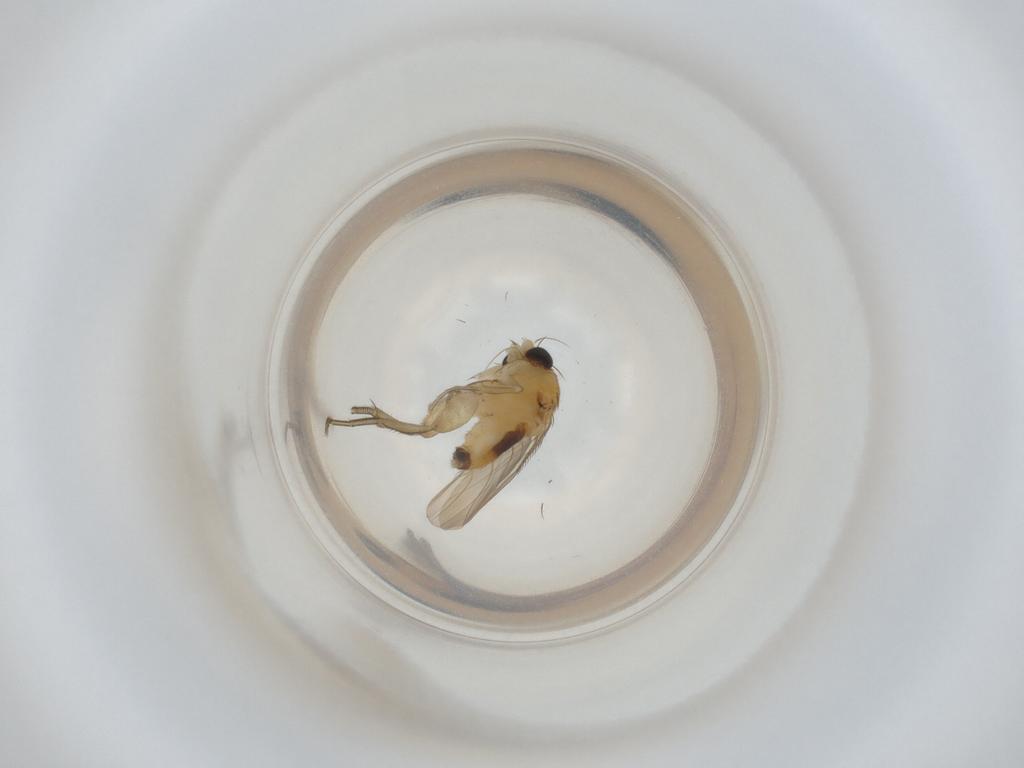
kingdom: Animalia
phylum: Arthropoda
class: Insecta
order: Diptera
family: Phoridae
